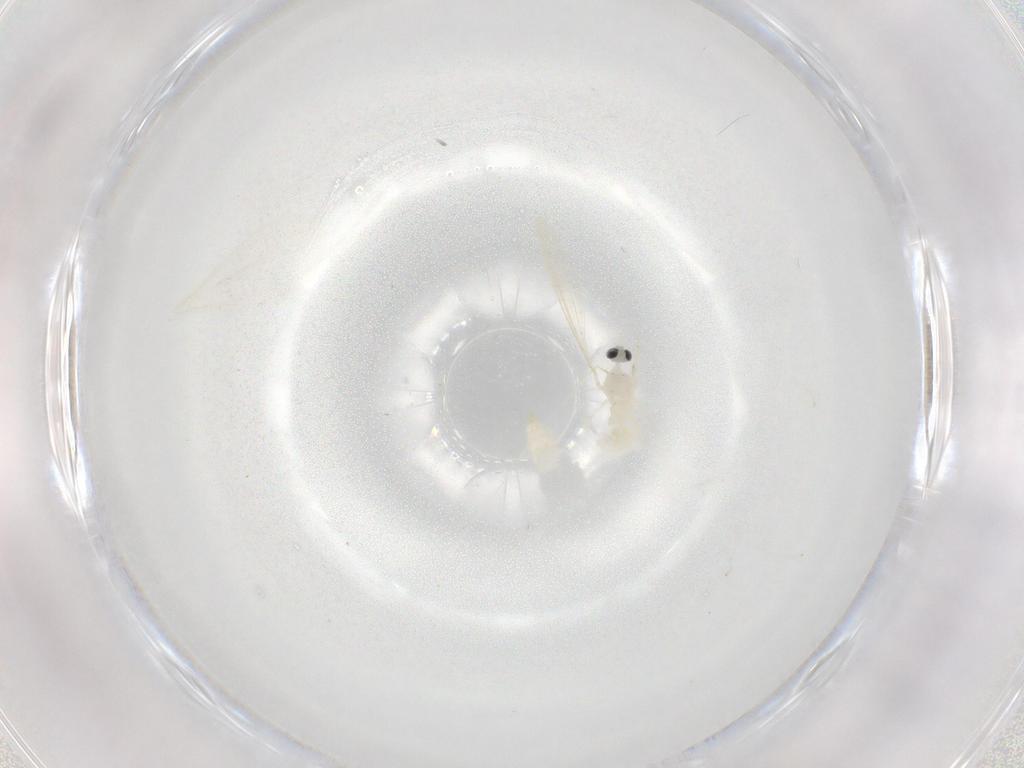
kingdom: Animalia
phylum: Arthropoda
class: Insecta
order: Diptera
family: Cecidomyiidae
